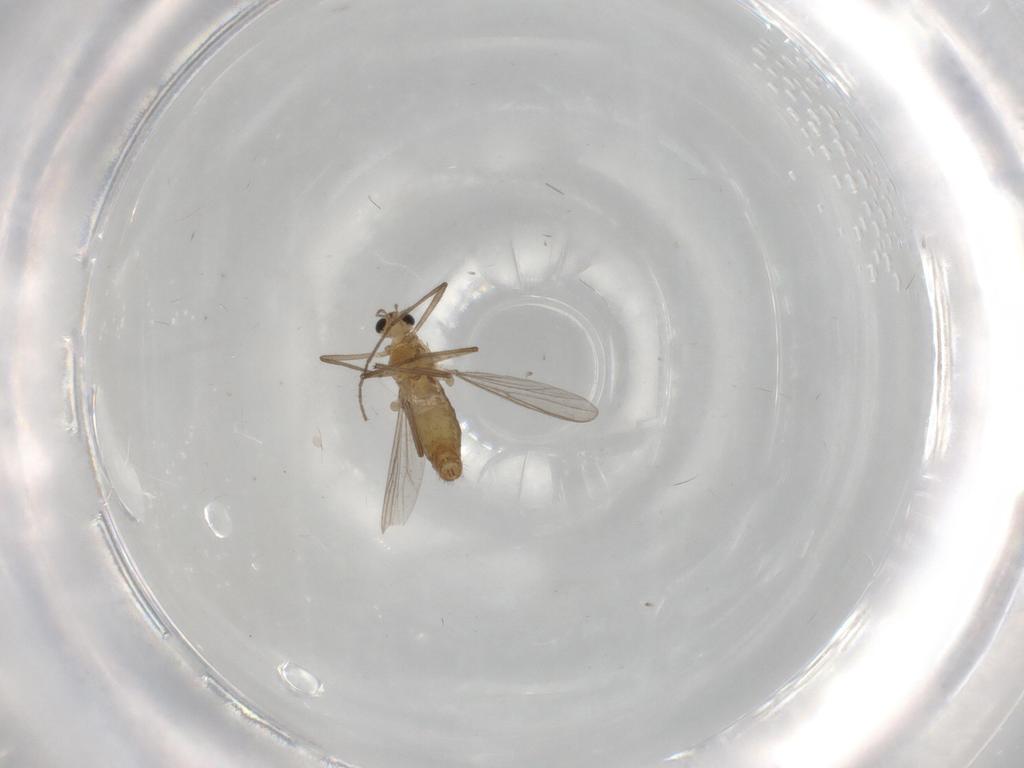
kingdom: Animalia
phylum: Arthropoda
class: Insecta
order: Diptera
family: Chironomidae
